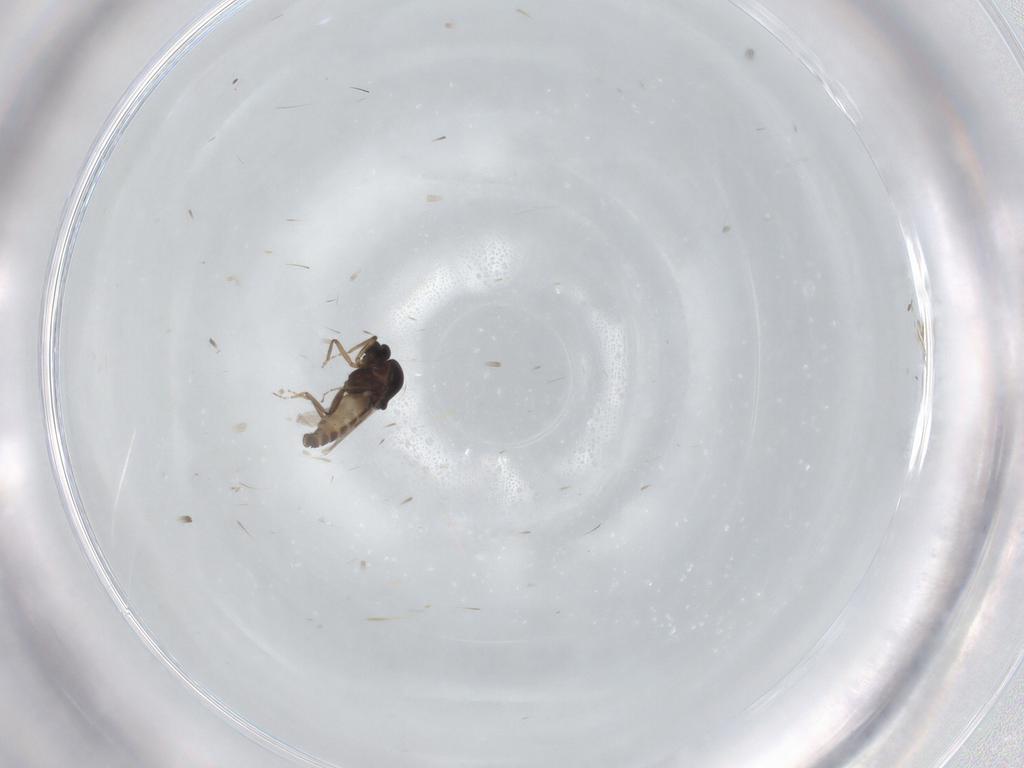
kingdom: Animalia
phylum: Arthropoda
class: Insecta
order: Diptera
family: Ceratopogonidae
